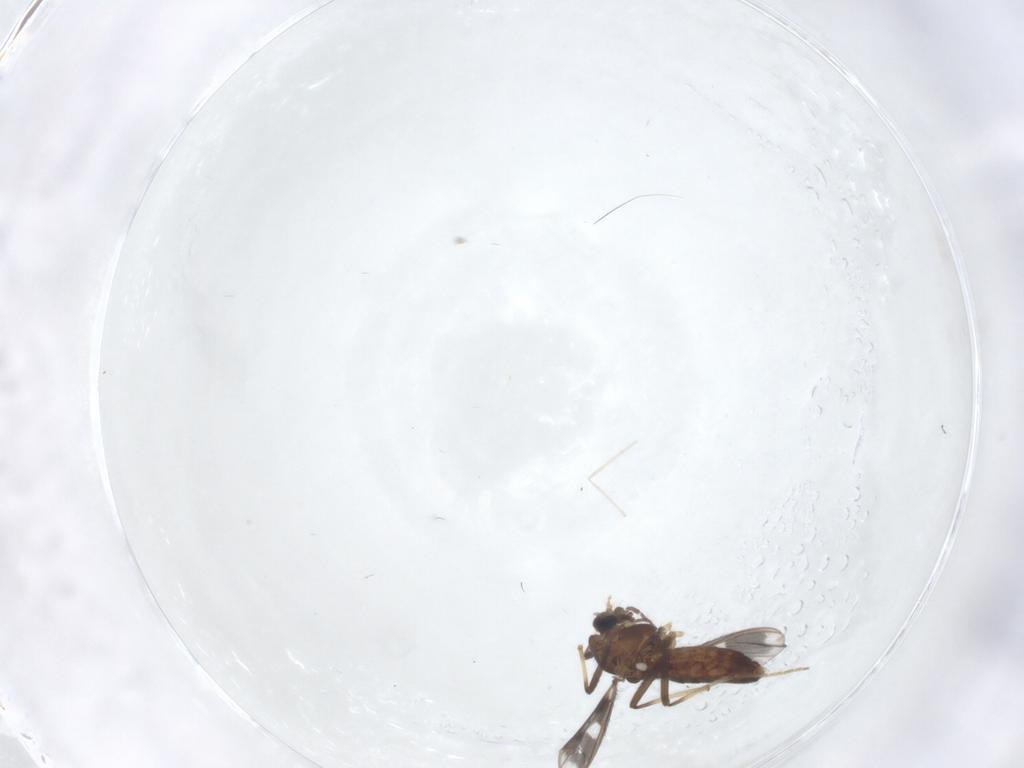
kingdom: Animalia
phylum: Arthropoda
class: Insecta
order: Diptera
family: Chironomidae
